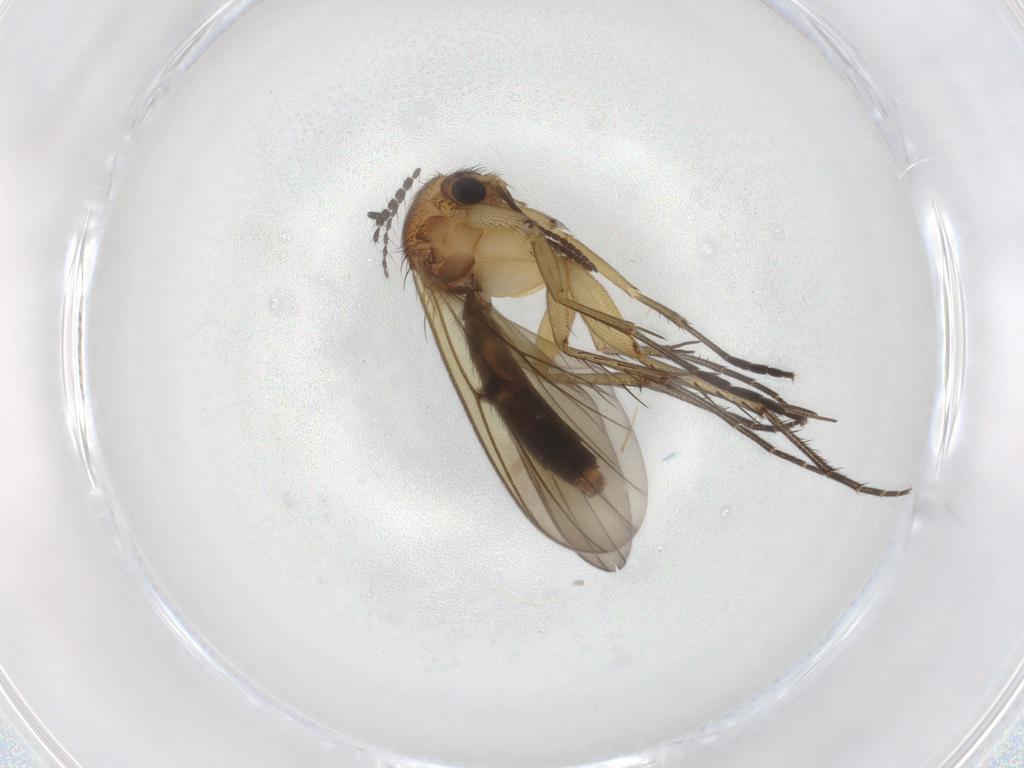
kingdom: Animalia
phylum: Arthropoda
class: Insecta
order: Diptera
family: Mycetophilidae
